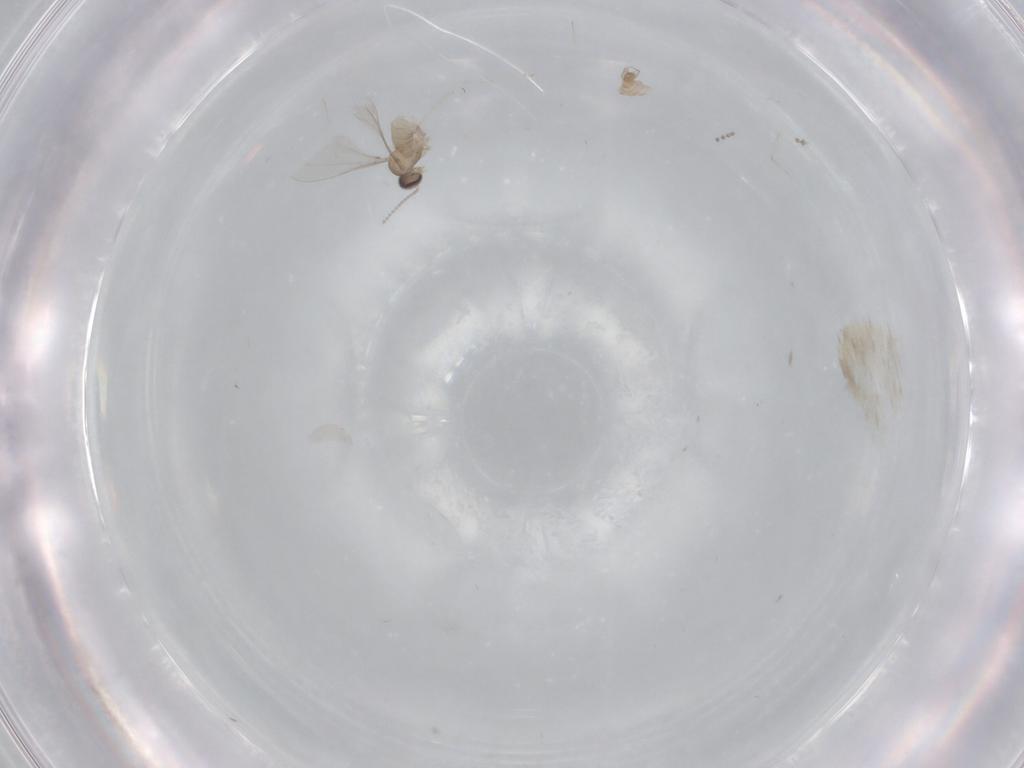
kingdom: Animalia
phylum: Arthropoda
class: Insecta
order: Diptera
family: Cecidomyiidae
